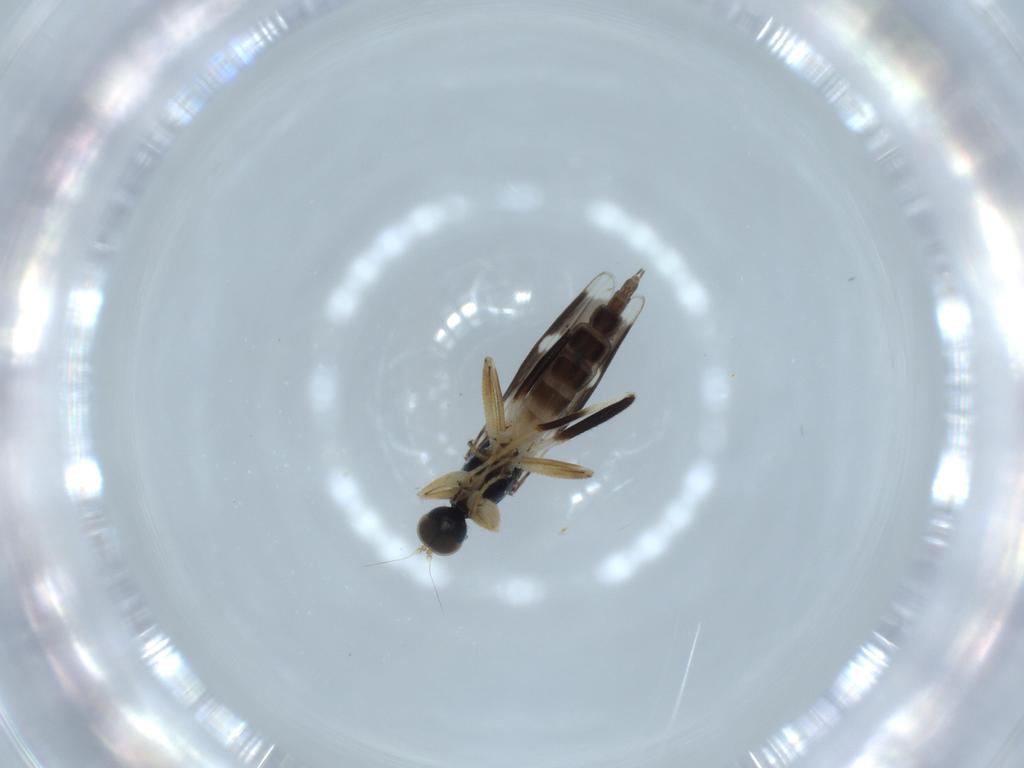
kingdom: Animalia
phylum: Arthropoda
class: Insecta
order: Diptera
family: Hybotidae
